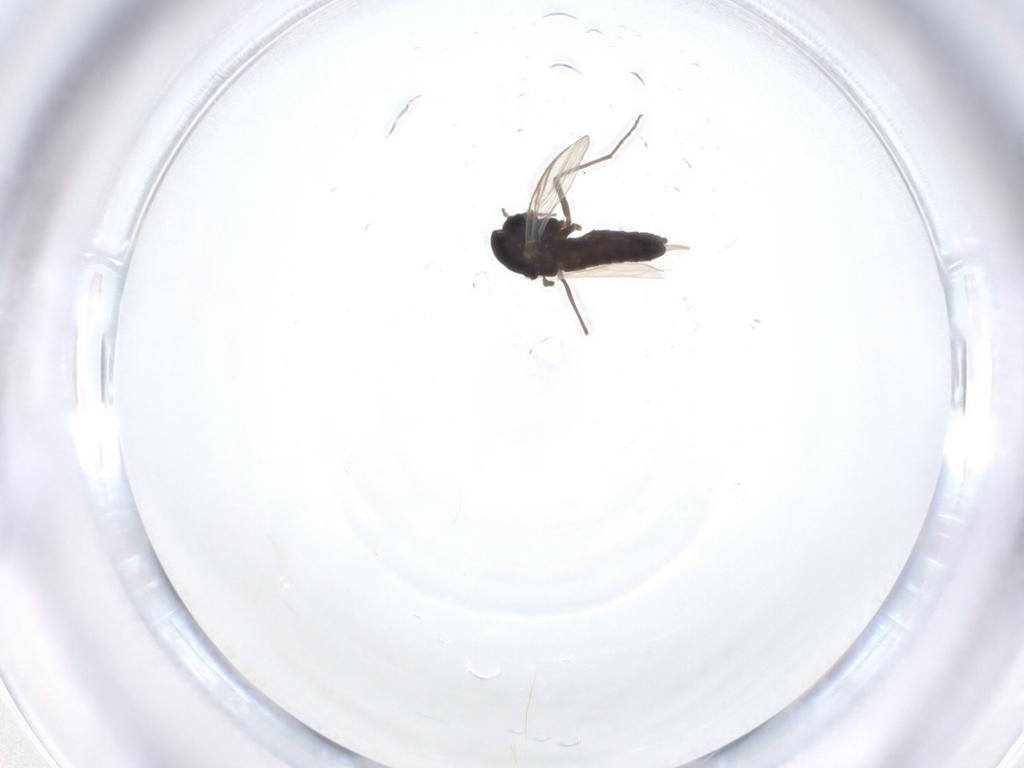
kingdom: Animalia
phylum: Arthropoda
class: Insecta
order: Diptera
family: Chironomidae
